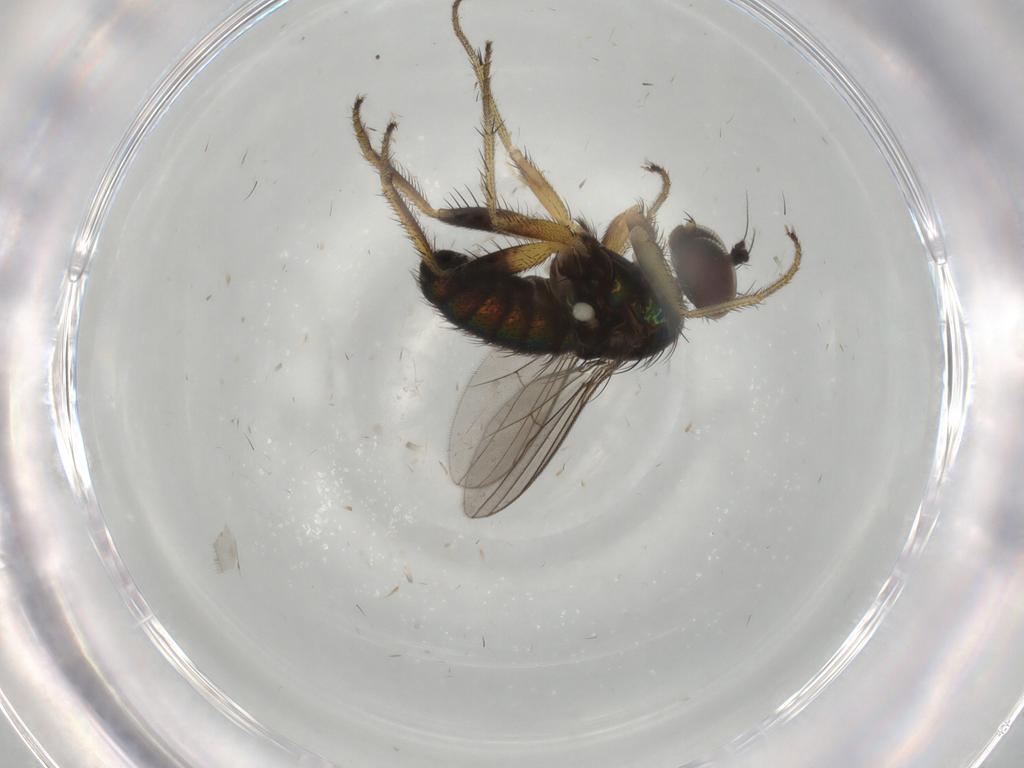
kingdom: Animalia
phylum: Arthropoda
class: Insecta
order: Diptera
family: Dolichopodidae
